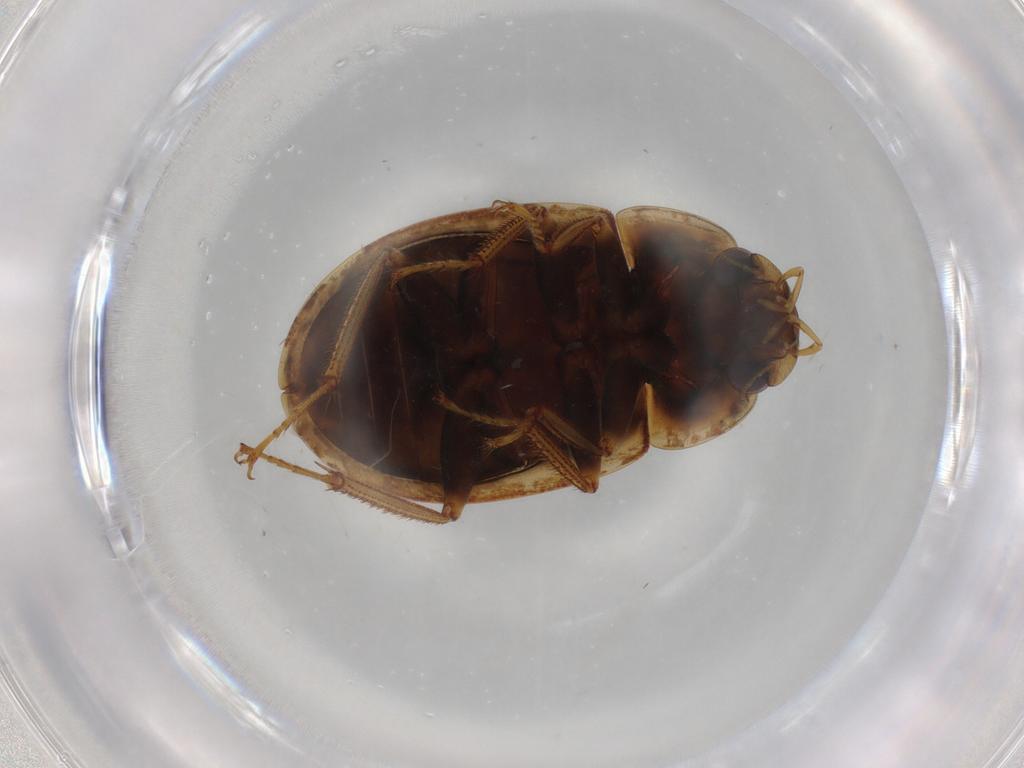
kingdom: Animalia
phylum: Arthropoda
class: Insecta
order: Coleoptera
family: Hydrophilidae
